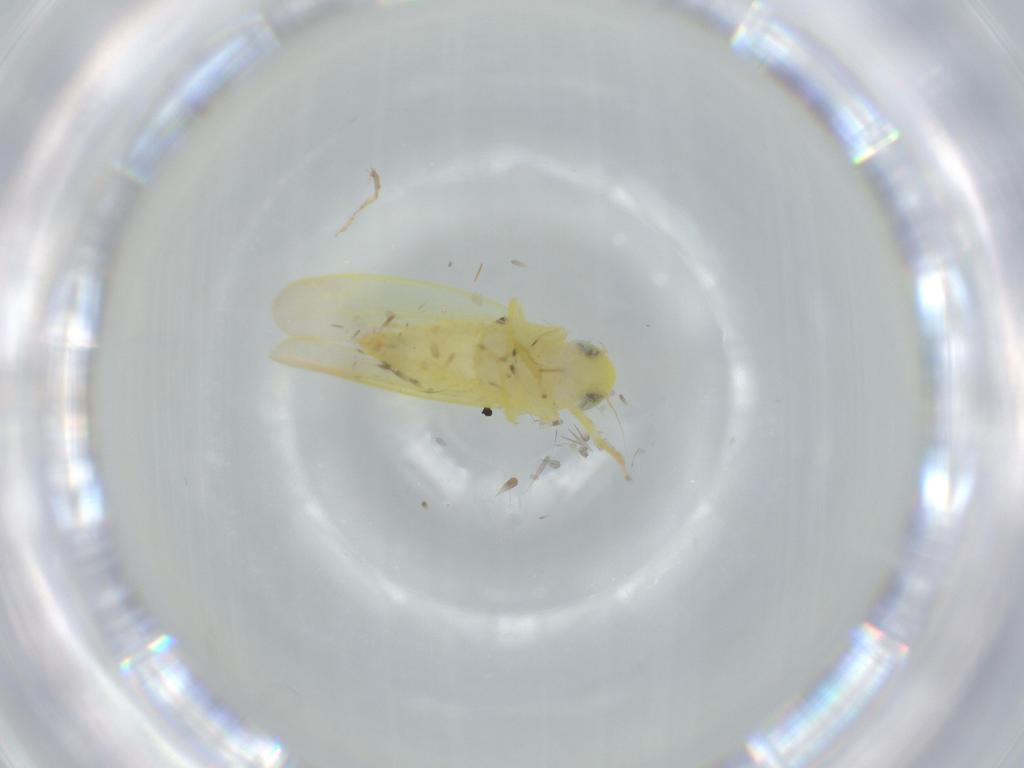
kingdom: Animalia
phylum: Arthropoda
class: Insecta
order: Hemiptera
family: Cicadellidae
